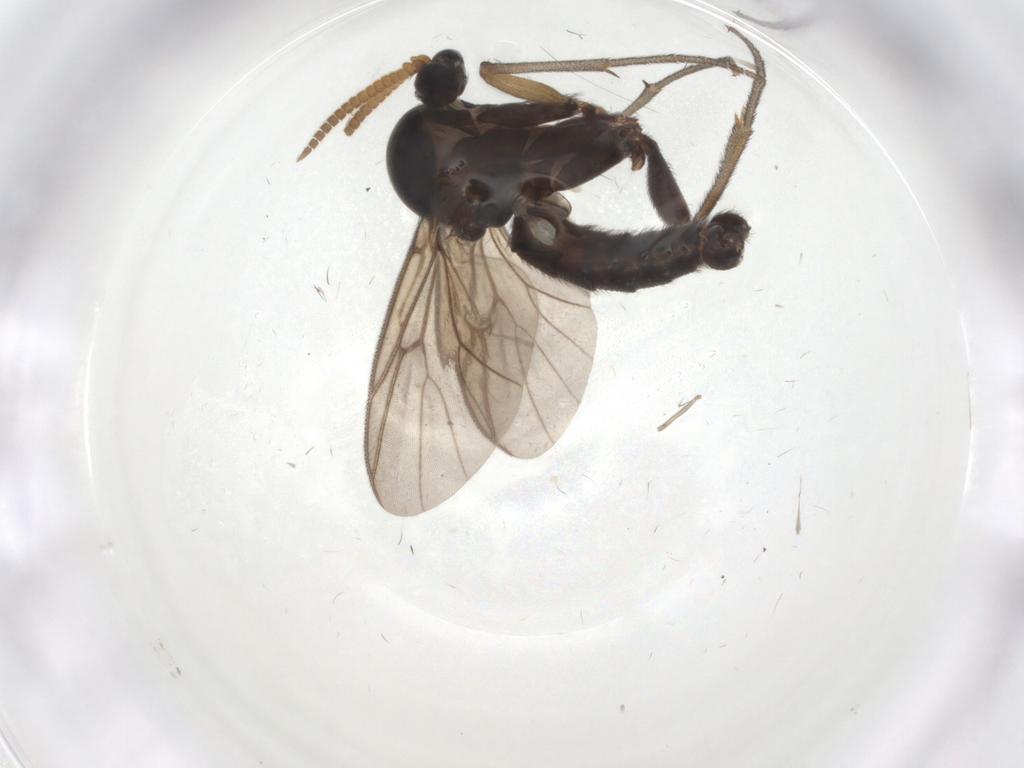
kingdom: Animalia
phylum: Arthropoda
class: Insecta
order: Diptera
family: Mycetophilidae
